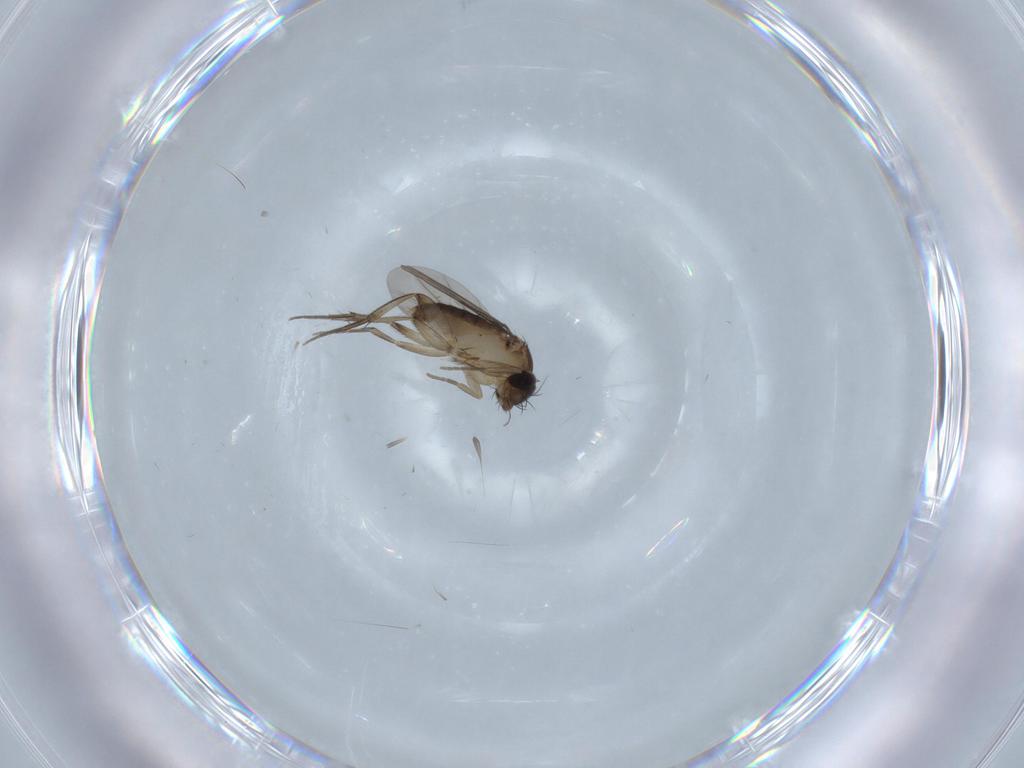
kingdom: Animalia
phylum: Arthropoda
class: Insecta
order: Diptera
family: Phoridae
